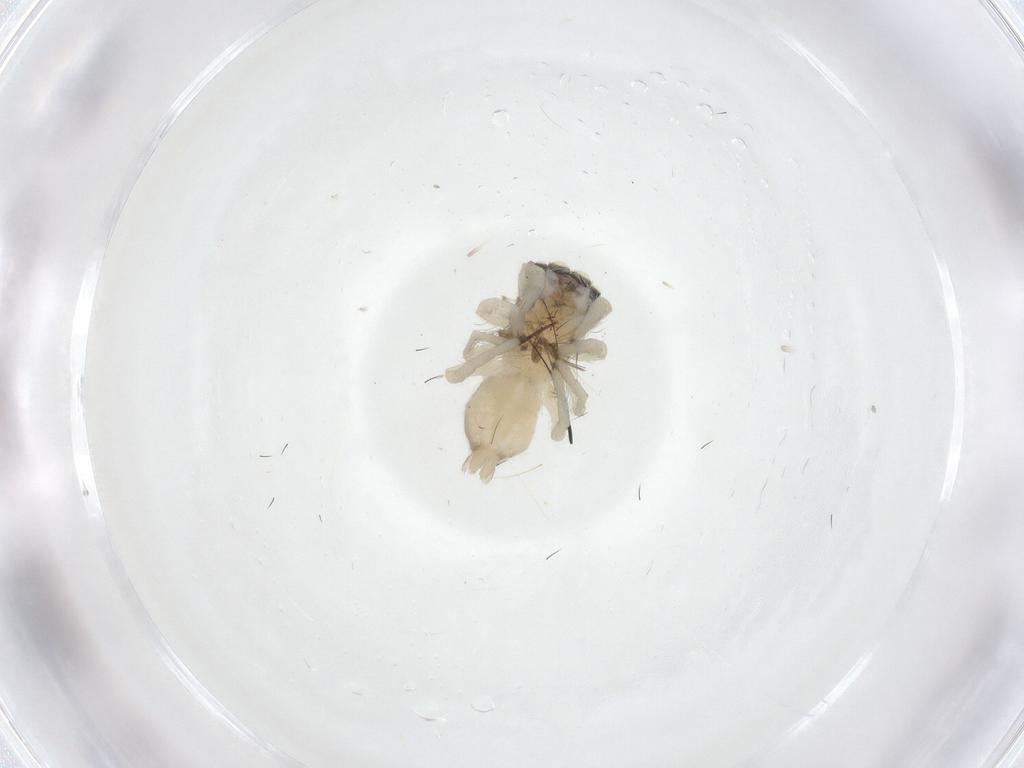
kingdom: Animalia
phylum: Arthropoda
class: Arachnida
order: Araneae
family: Salticidae
